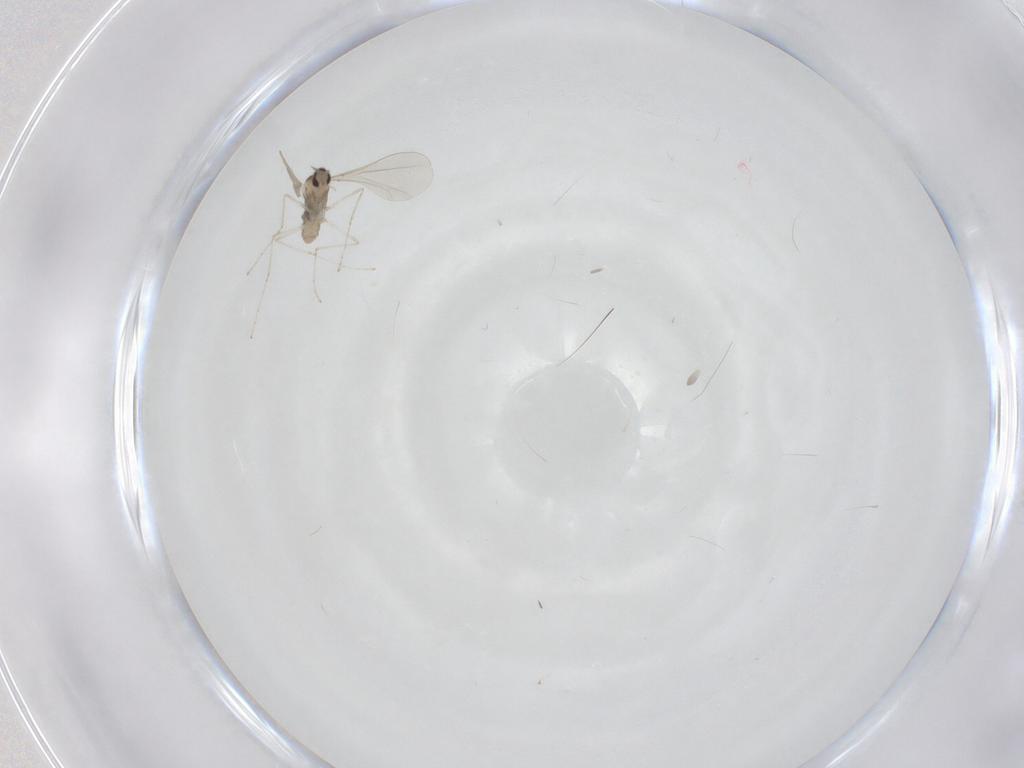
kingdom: Animalia
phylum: Arthropoda
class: Insecta
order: Diptera
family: Cecidomyiidae
